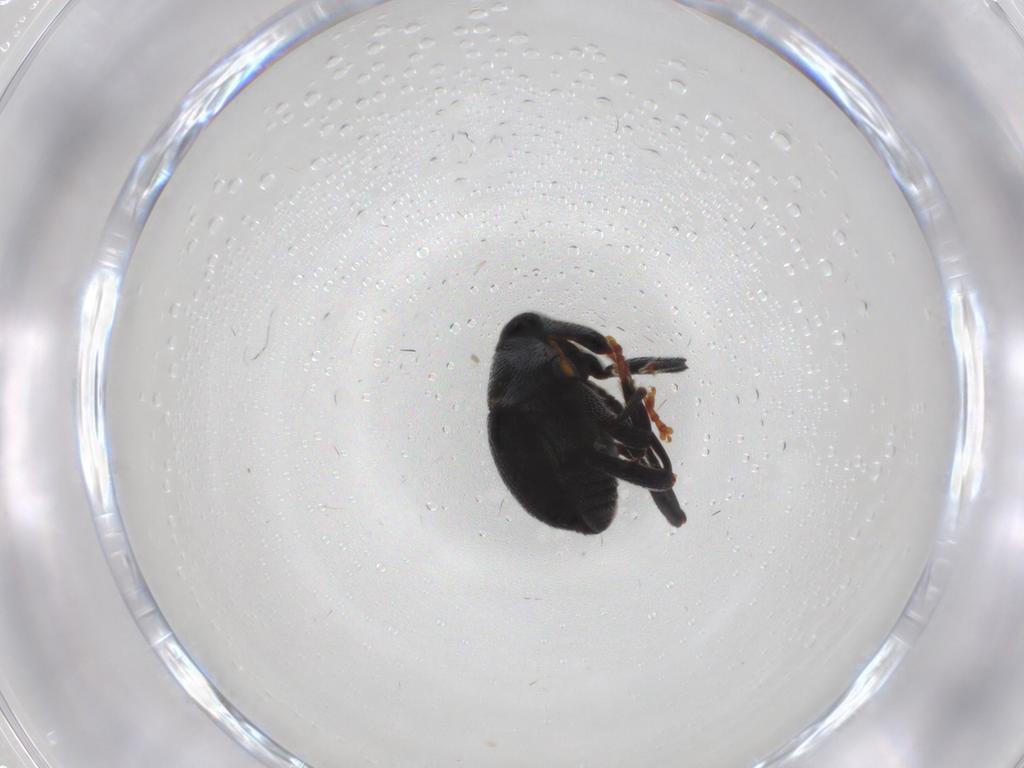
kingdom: Animalia
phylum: Arthropoda
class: Insecta
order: Coleoptera
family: Curculionidae
